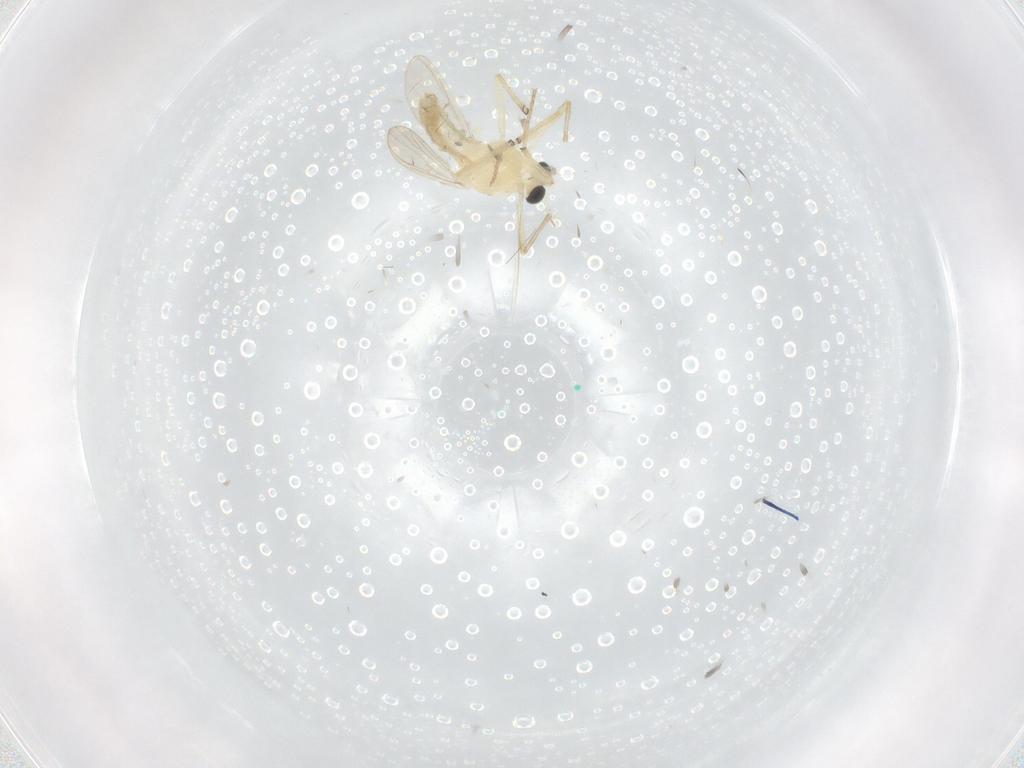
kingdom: Animalia
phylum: Arthropoda
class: Insecta
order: Diptera
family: Chironomidae
